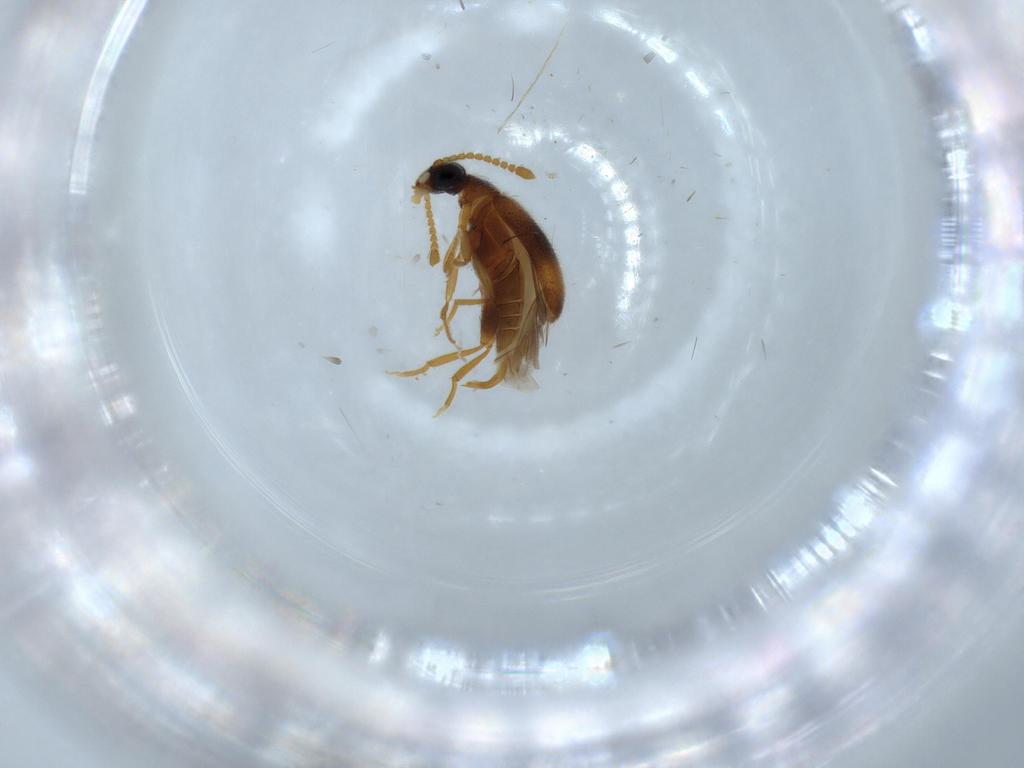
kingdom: Animalia
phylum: Arthropoda
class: Insecta
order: Coleoptera
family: Aderidae
